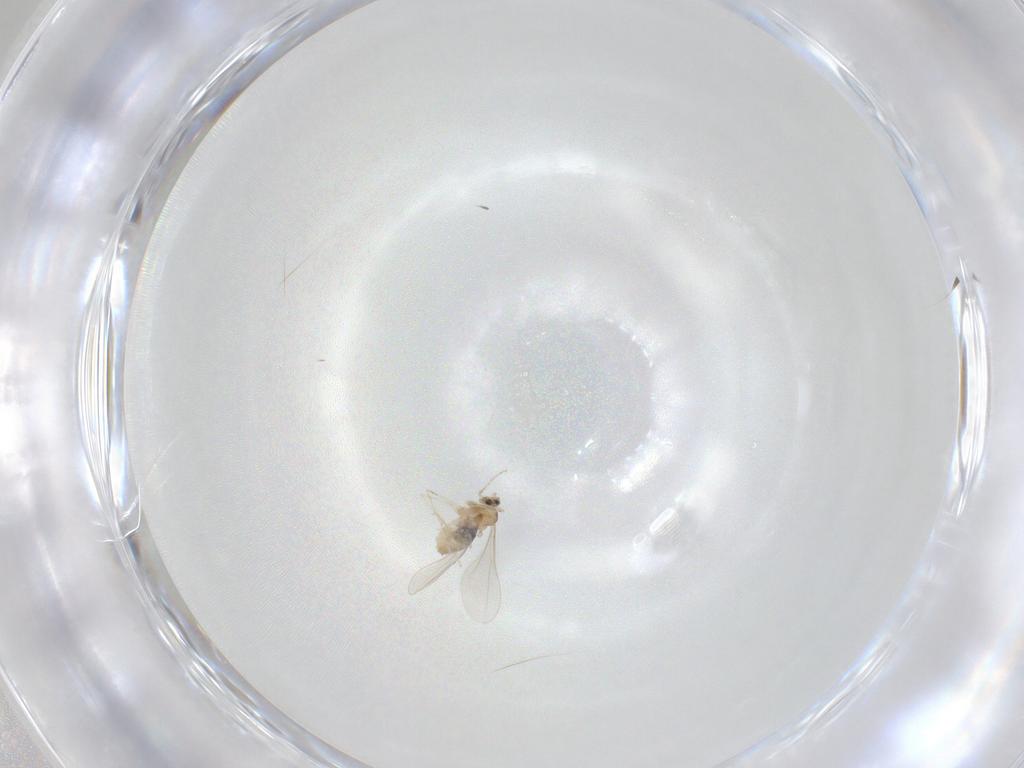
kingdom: Animalia
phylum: Arthropoda
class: Insecta
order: Diptera
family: Cecidomyiidae
